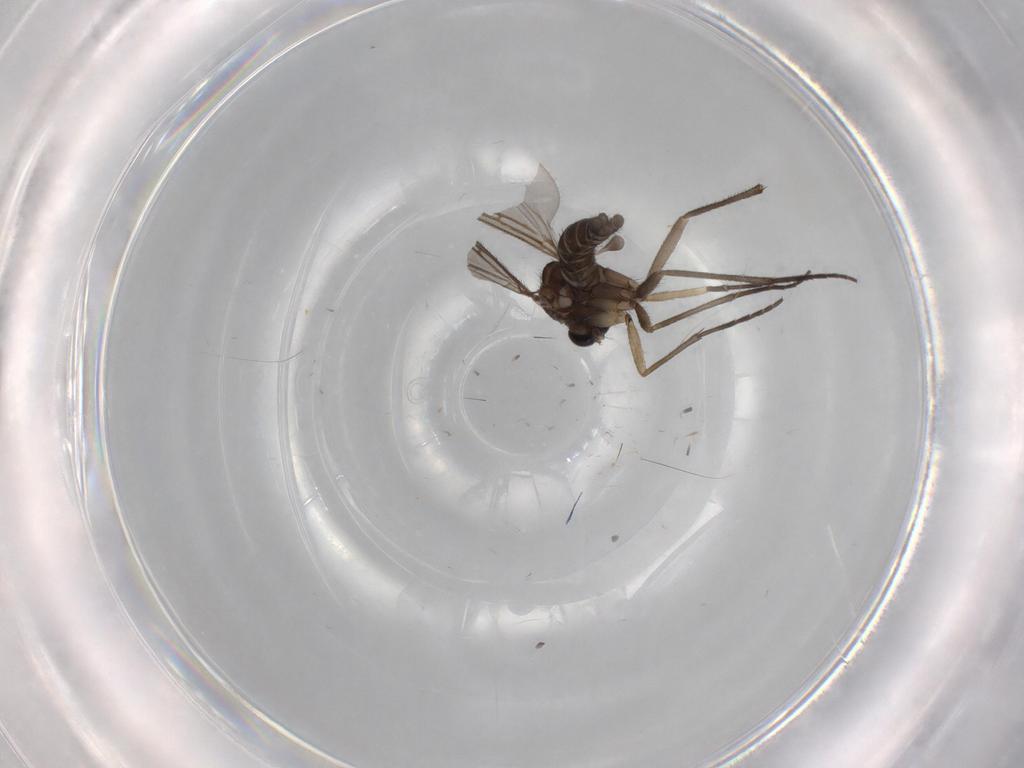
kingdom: Animalia
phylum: Arthropoda
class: Insecta
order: Diptera
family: Sciaridae
